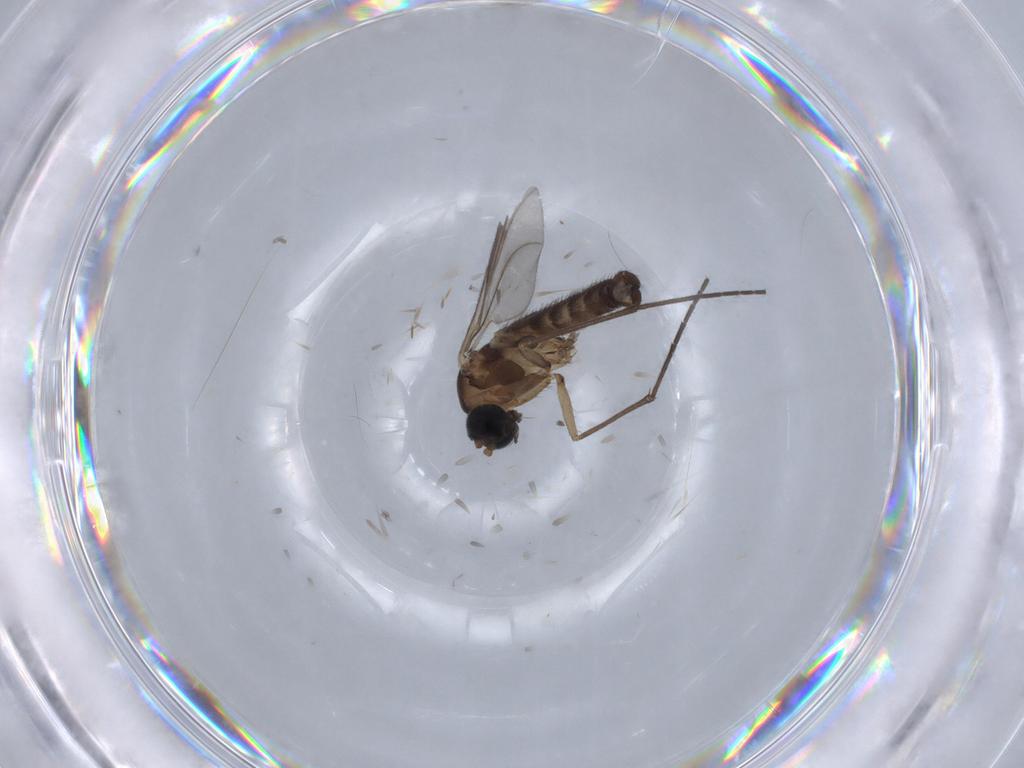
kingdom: Animalia
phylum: Arthropoda
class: Insecta
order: Diptera
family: Sciaridae
